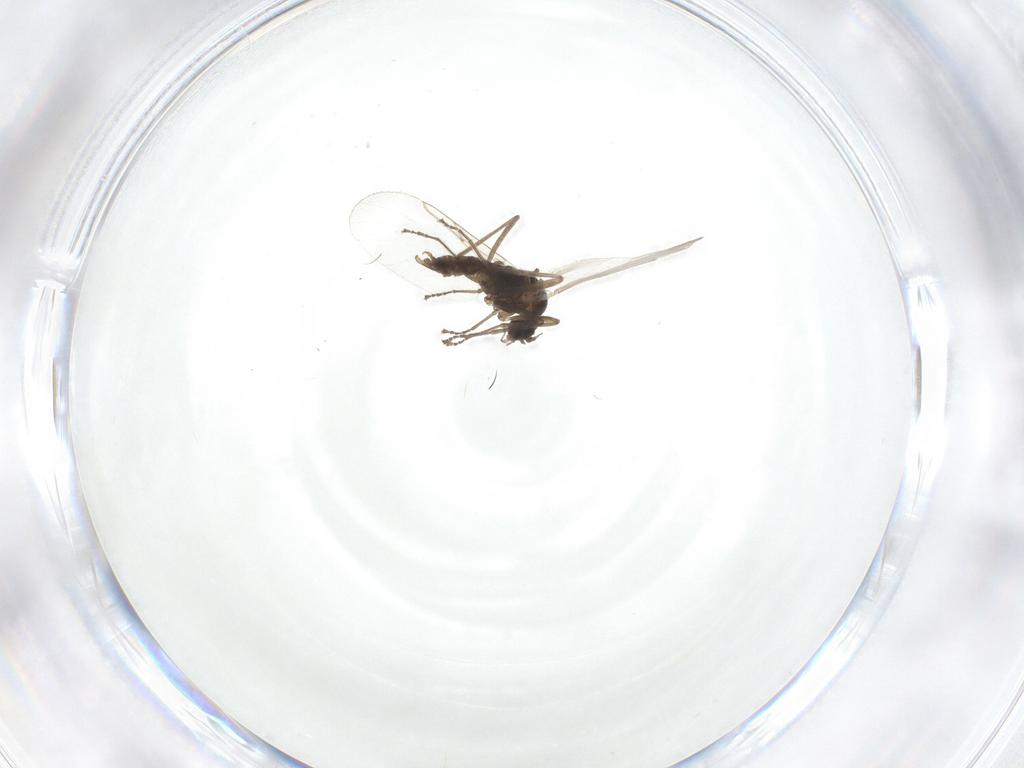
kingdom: Animalia
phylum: Arthropoda
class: Insecta
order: Diptera
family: Cecidomyiidae
